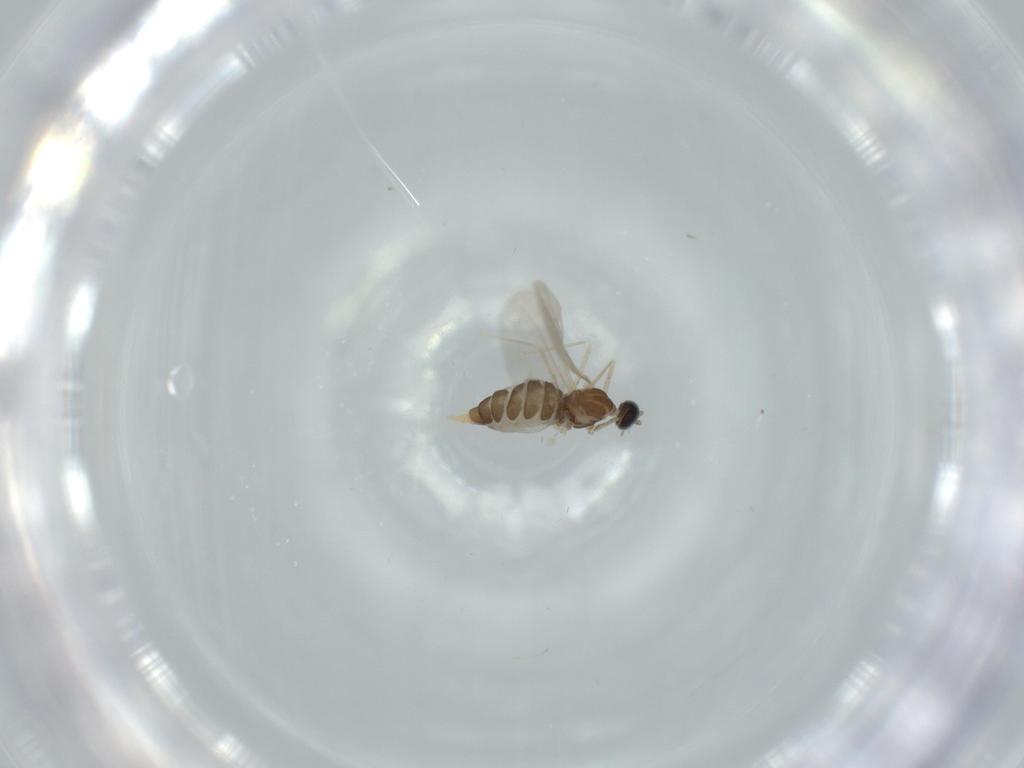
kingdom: Animalia
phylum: Arthropoda
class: Insecta
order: Diptera
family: Cecidomyiidae
